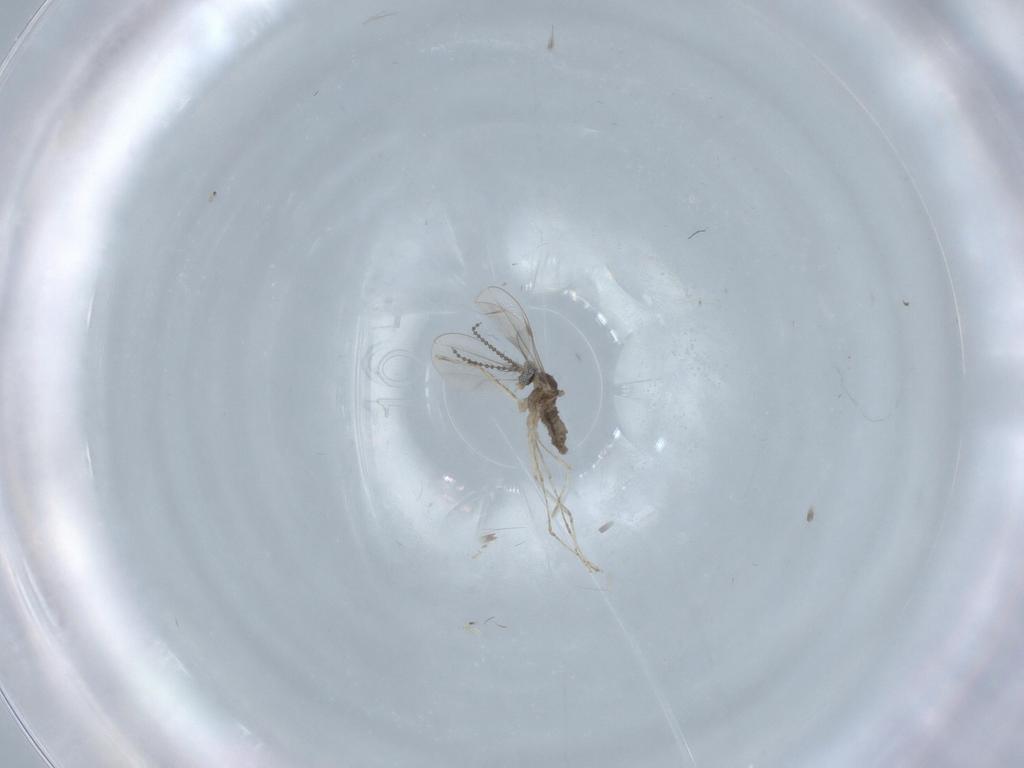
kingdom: Animalia
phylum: Arthropoda
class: Insecta
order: Diptera
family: Cecidomyiidae
